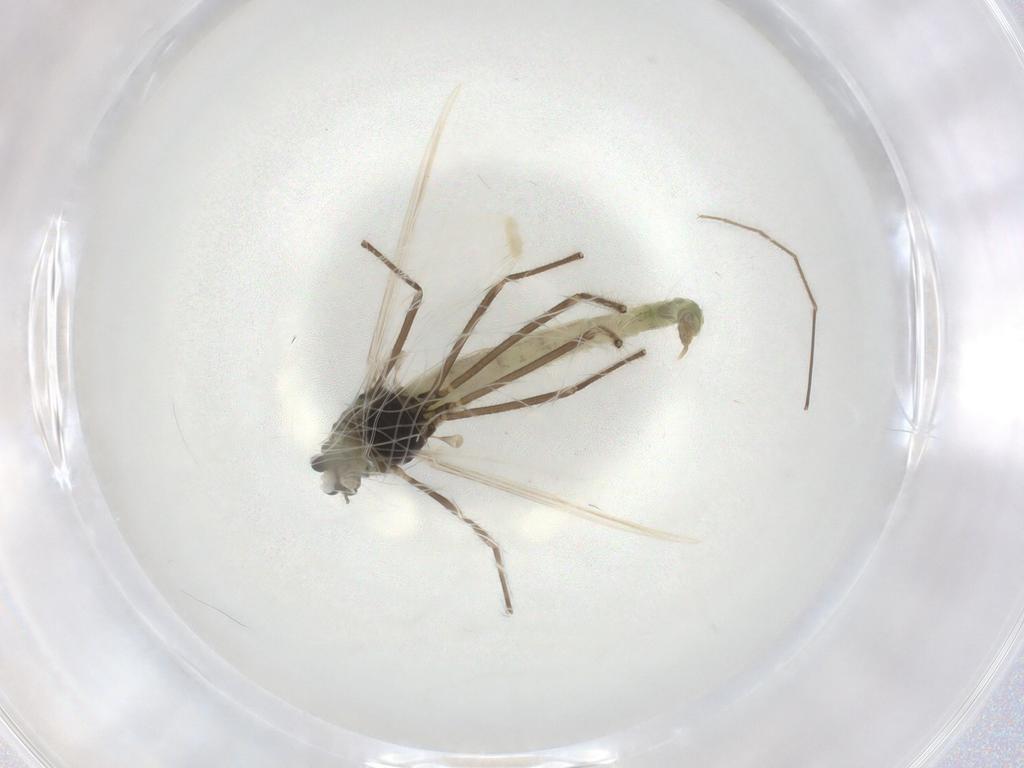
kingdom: Animalia
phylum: Arthropoda
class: Insecta
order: Diptera
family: Chironomidae
